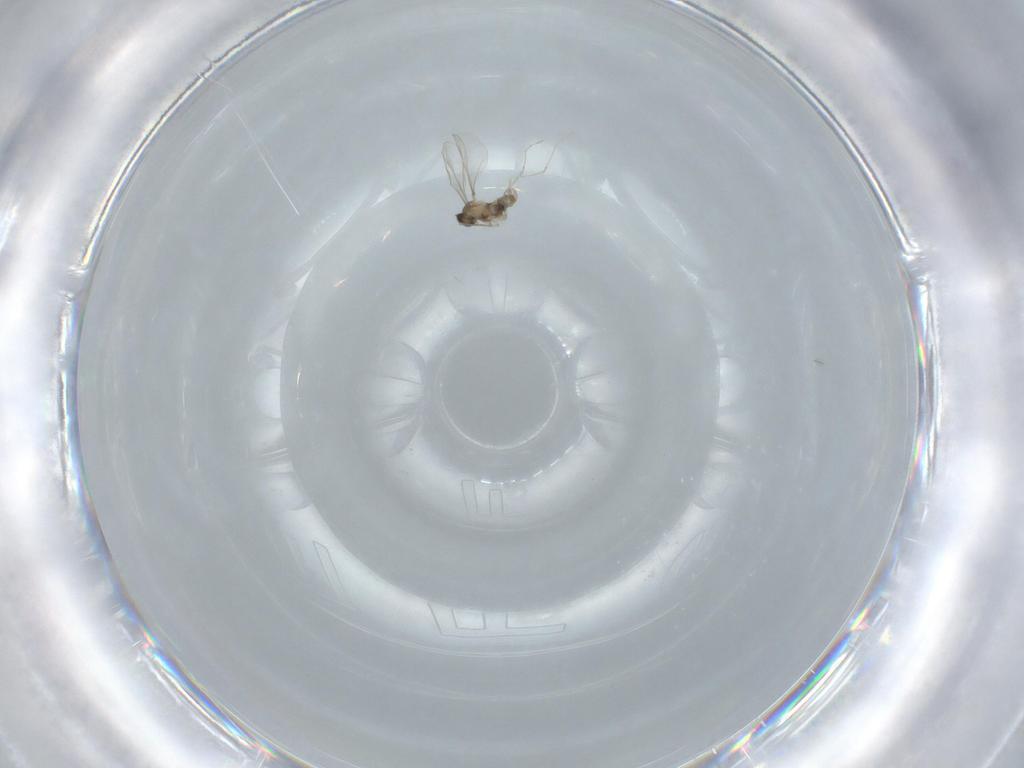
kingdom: Animalia
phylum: Arthropoda
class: Insecta
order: Diptera
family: Cecidomyiidae
